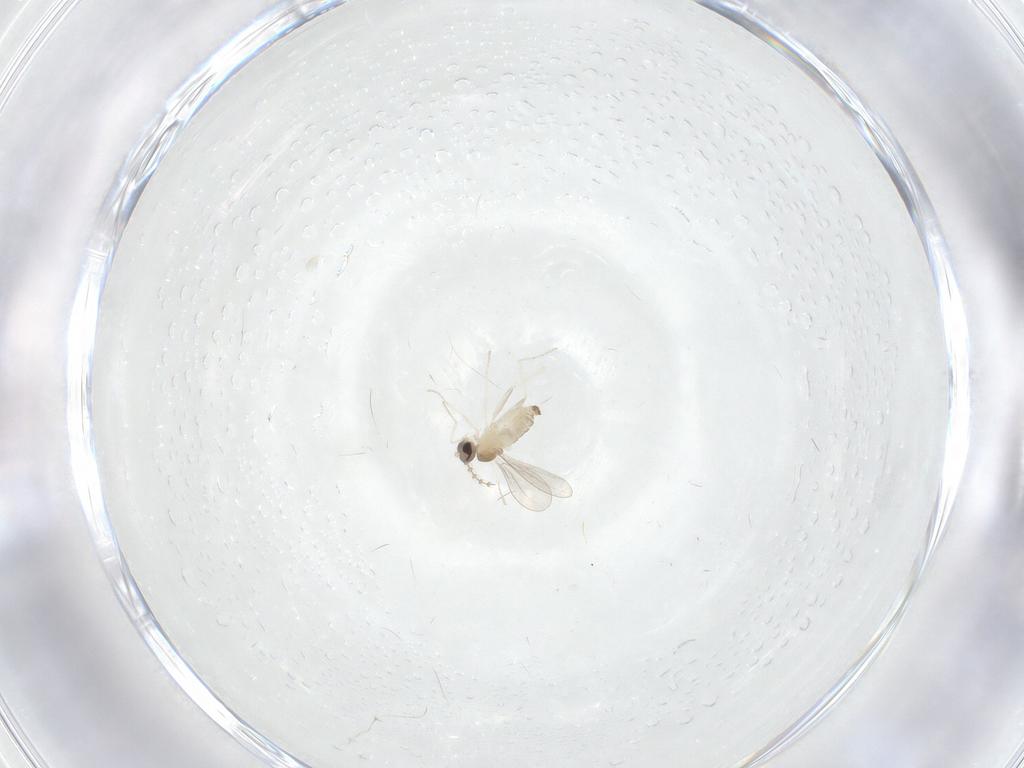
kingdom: Animalia
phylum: Arthropoda
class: Insecta
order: Diptera
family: Cecidomyiidae
